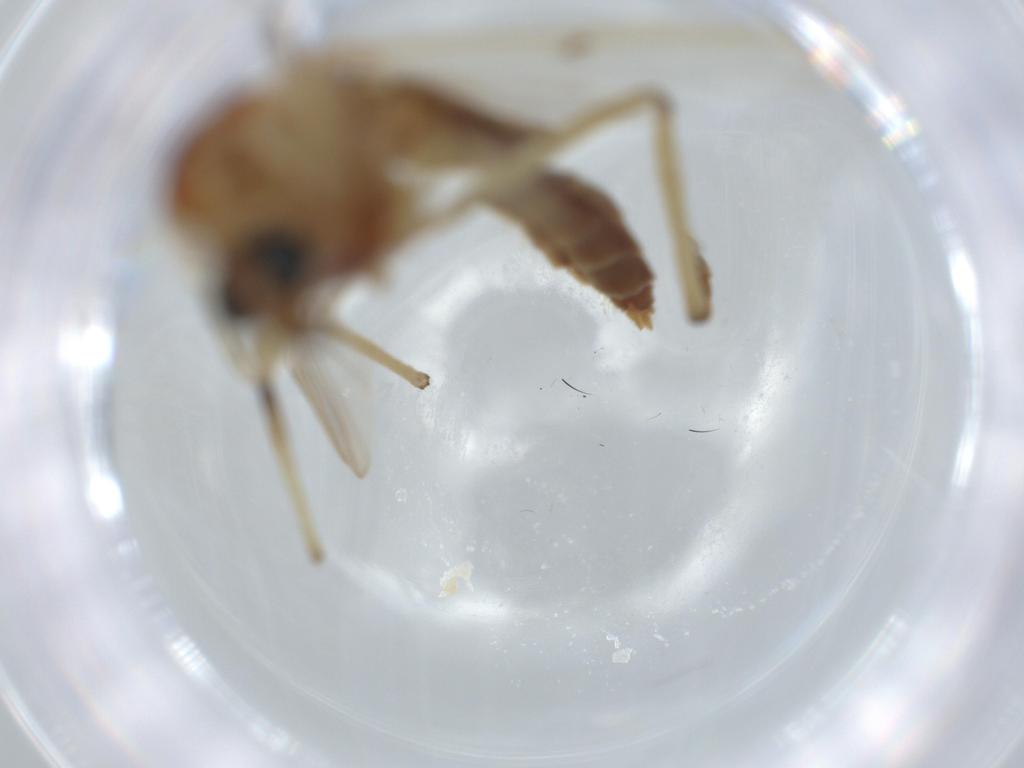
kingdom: Animalia
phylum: Arthropoda
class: Insecta
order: Diptera
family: Chironomidae
